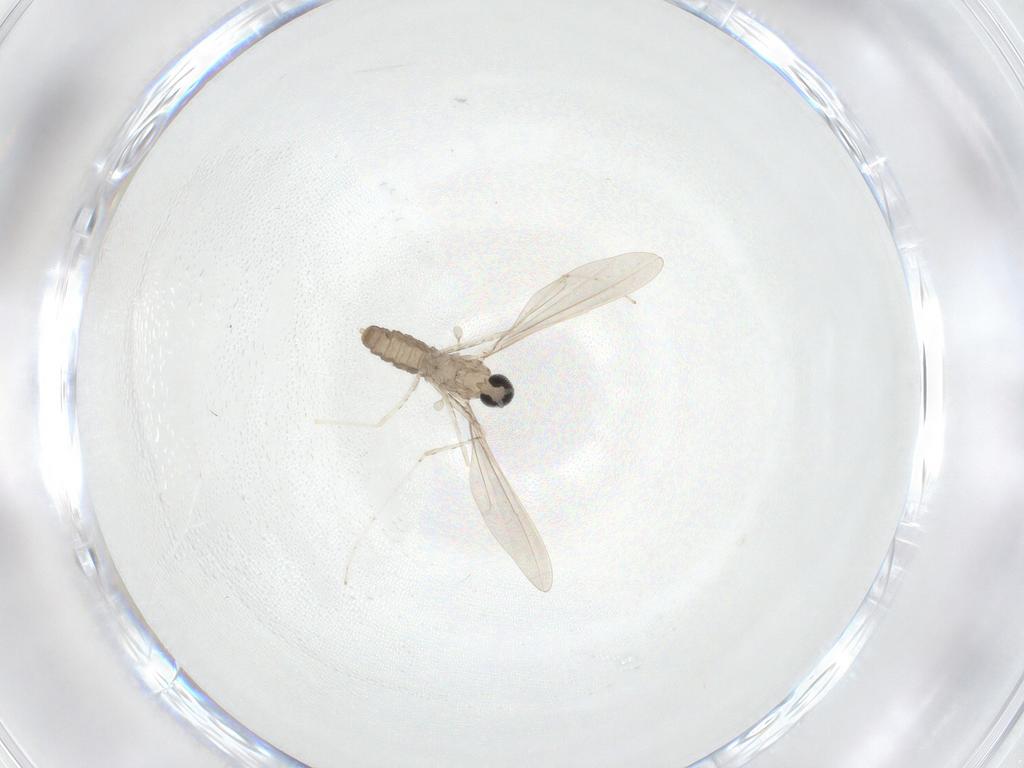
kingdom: Animalia
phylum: Arthropoda
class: Insecta
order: Diptera
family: Cecidomyiidae
